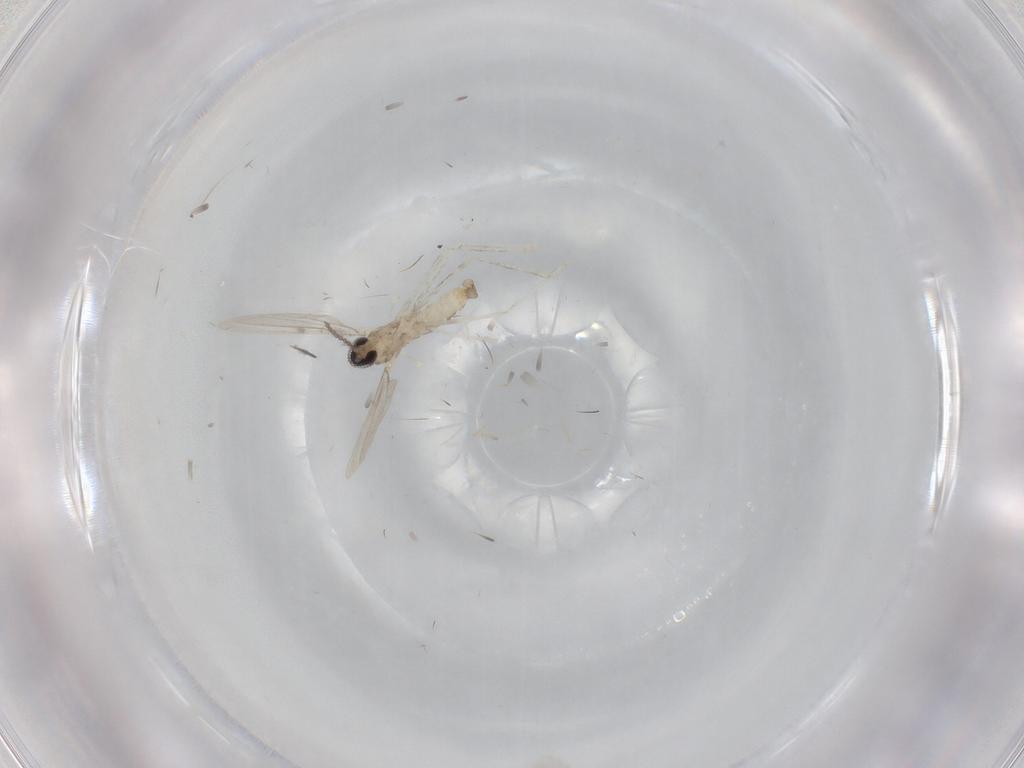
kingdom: Animalia
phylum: Arthropoda
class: Insecta
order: Diptera
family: Cecidomyiidae
